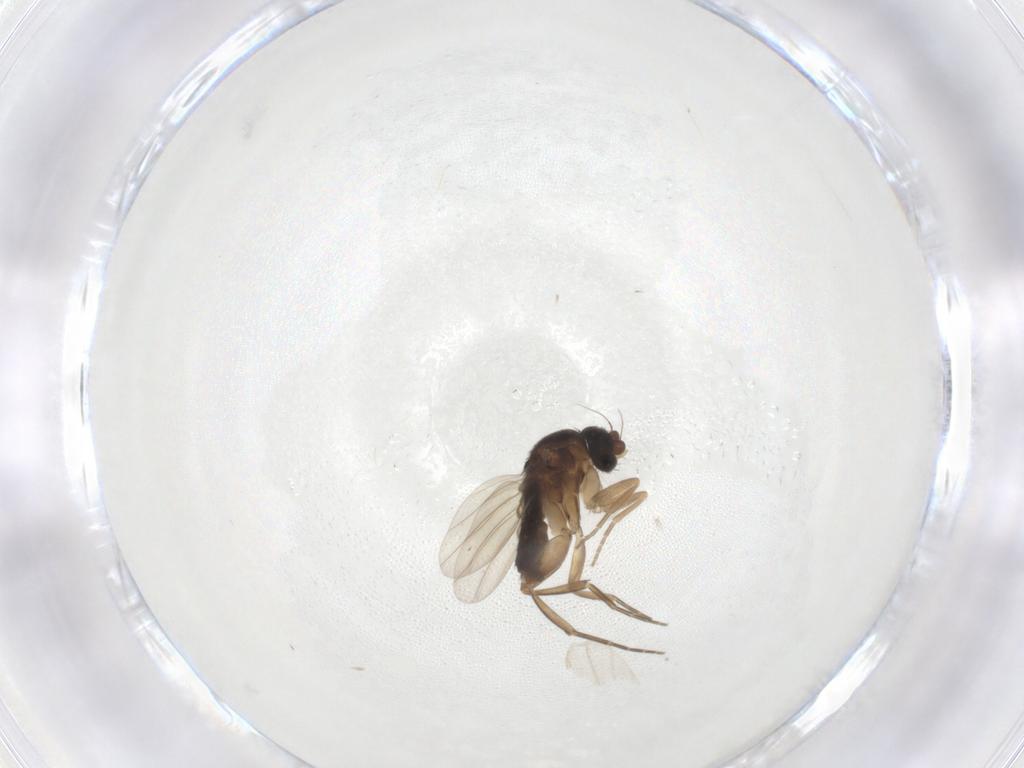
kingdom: Animalia
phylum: Arthropoda
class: Insecta
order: Diptera
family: Phoridae
